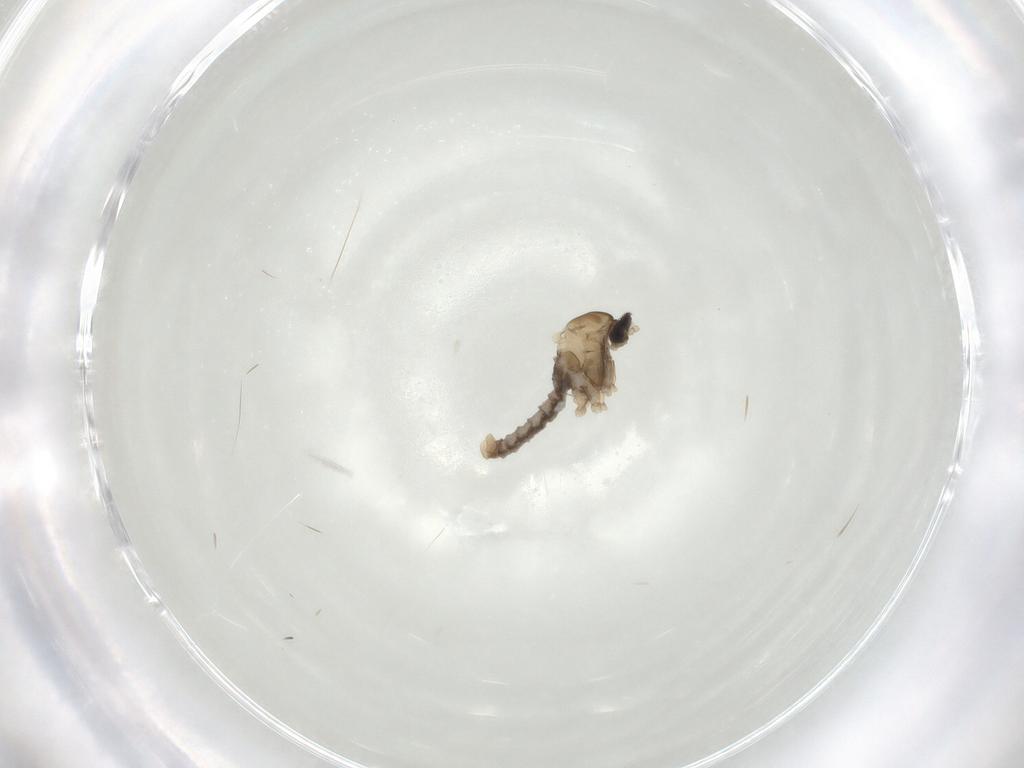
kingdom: Animalia
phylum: Arthropoda
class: Insecta
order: Diptera
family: Cecidomyiidae
